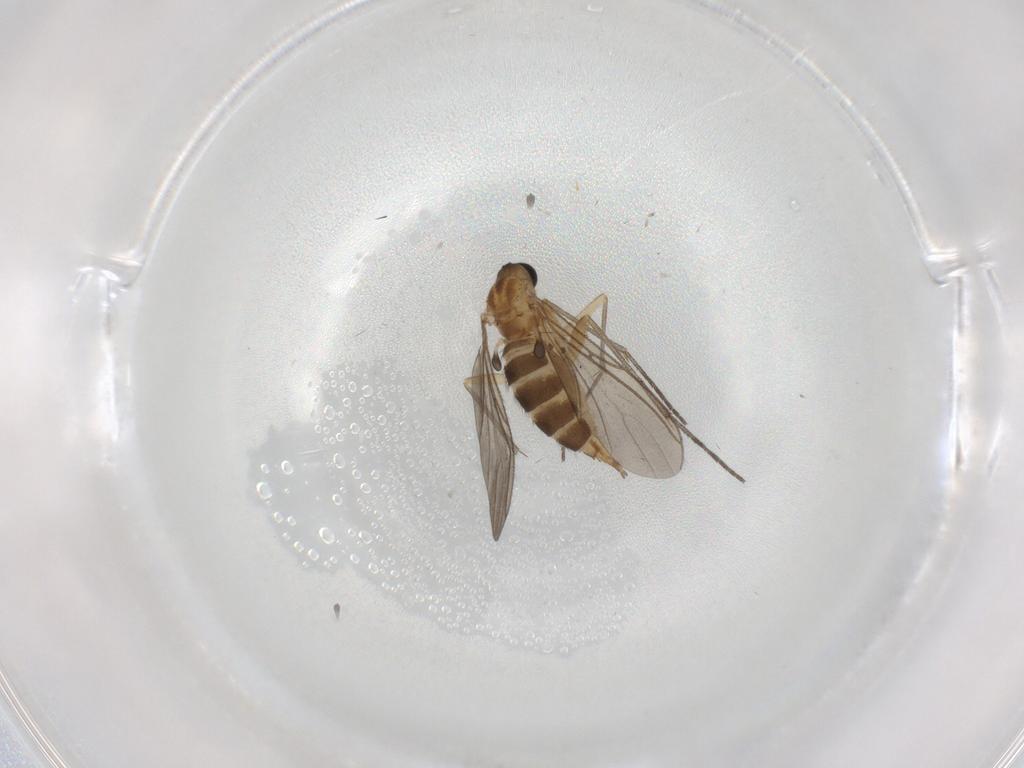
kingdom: Animalia
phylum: Arthropoda
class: Insecta
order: Diptera
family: Sciaridae
